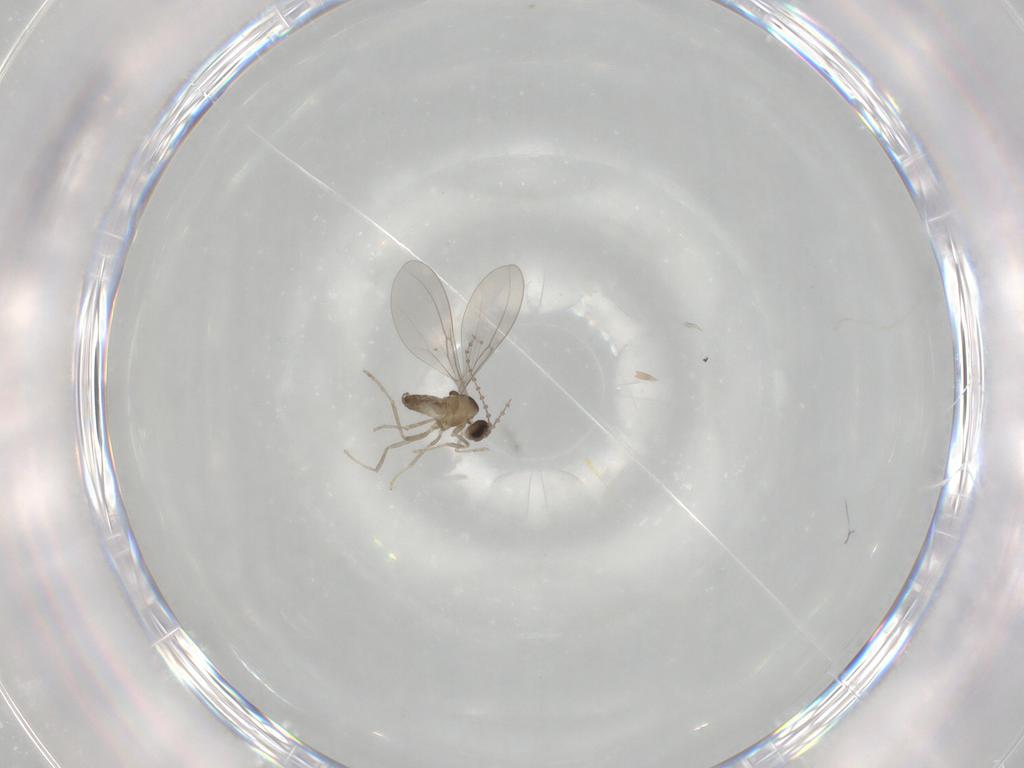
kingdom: Animalia
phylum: Arthropoda
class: Insecta
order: Diptera
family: Cecidomyiidae
